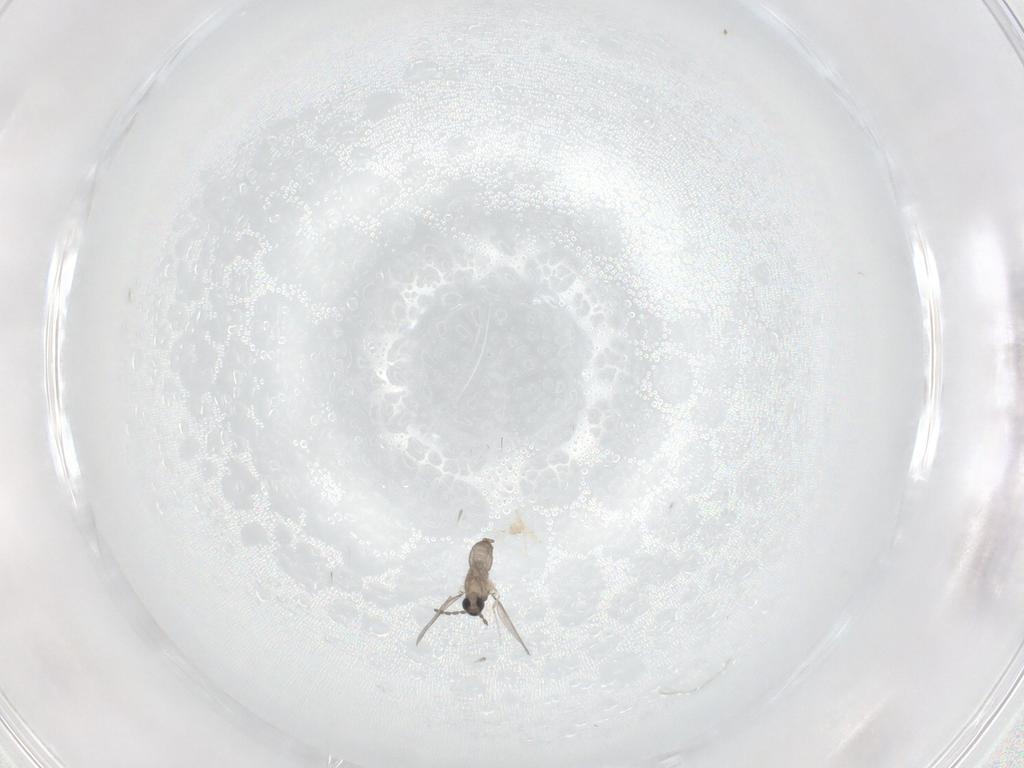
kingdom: Animalia
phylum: Arthropoda
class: Insecta
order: Diptera
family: Cecidomyiidae
